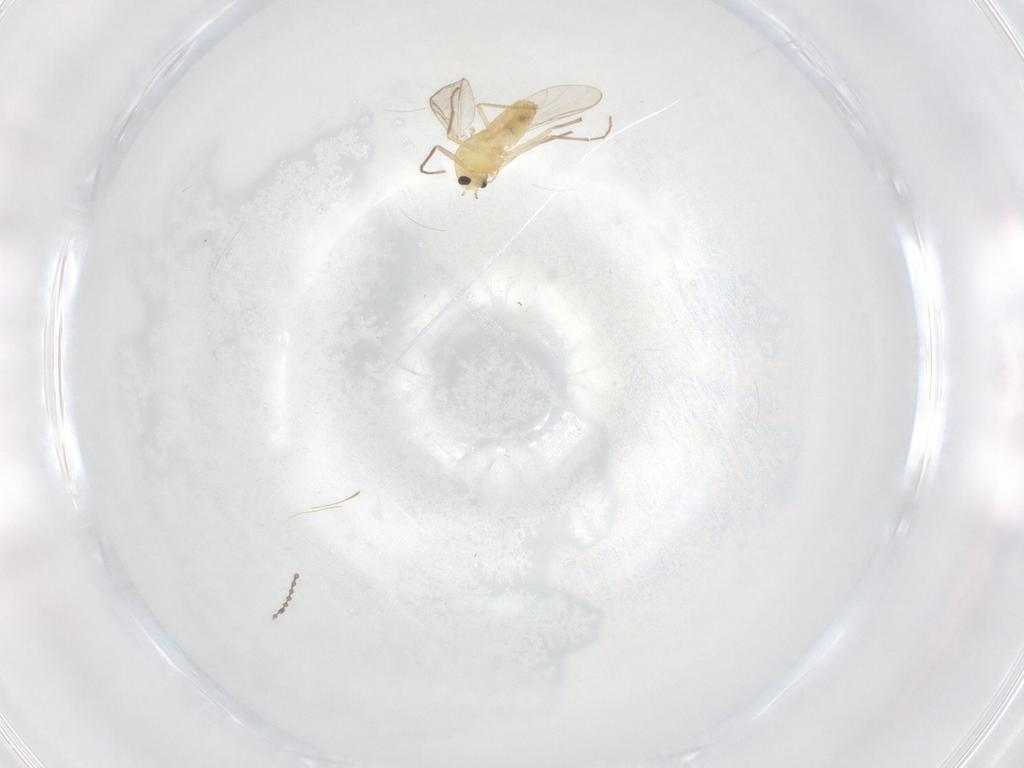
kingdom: Animalia
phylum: Arthropoda
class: Insecta
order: Diptera
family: Chironomidae
